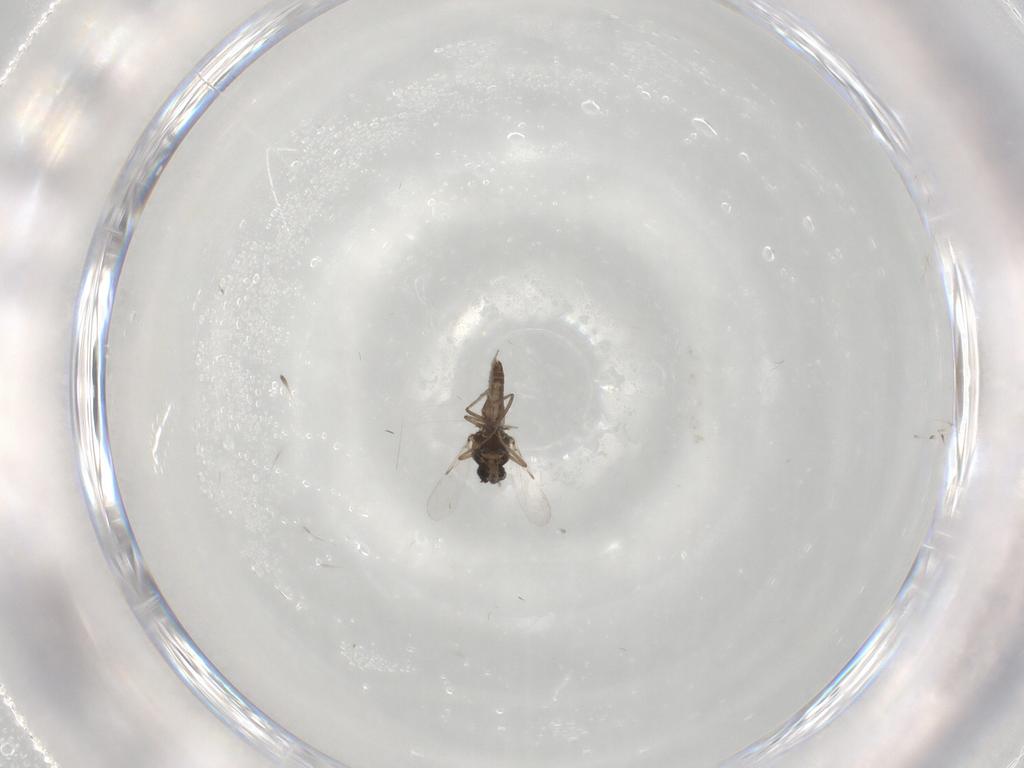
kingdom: Animalia
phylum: Arthropoda
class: Insecta
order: Diptera
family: Ceratopogonidae
